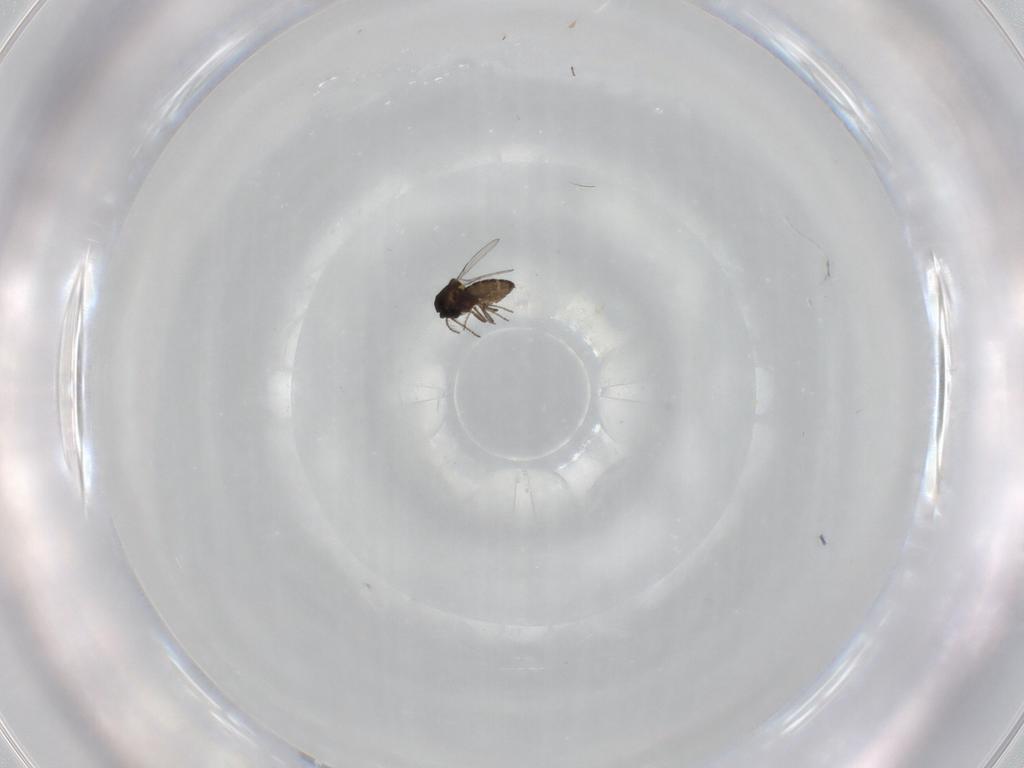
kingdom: Animalia
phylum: Arthropoda
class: Insecta
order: Diptera
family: Ceratopogonidae
